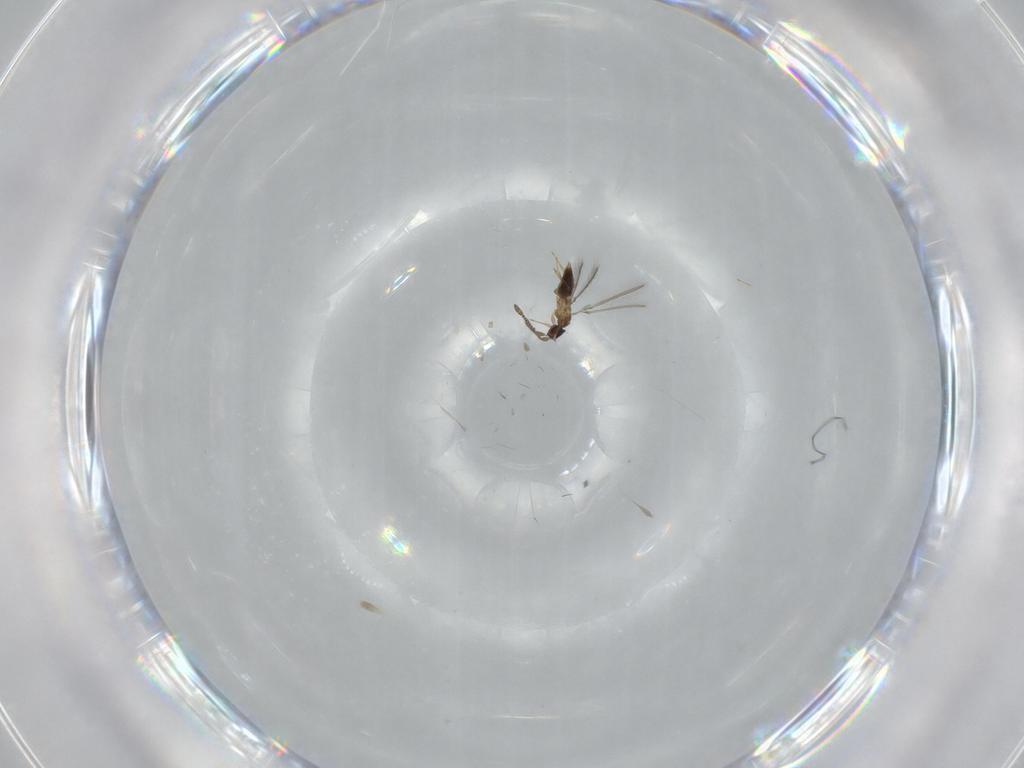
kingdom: Animalia
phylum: Arthropoda
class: Insecta
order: Hymenoptera
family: Mymaridae
